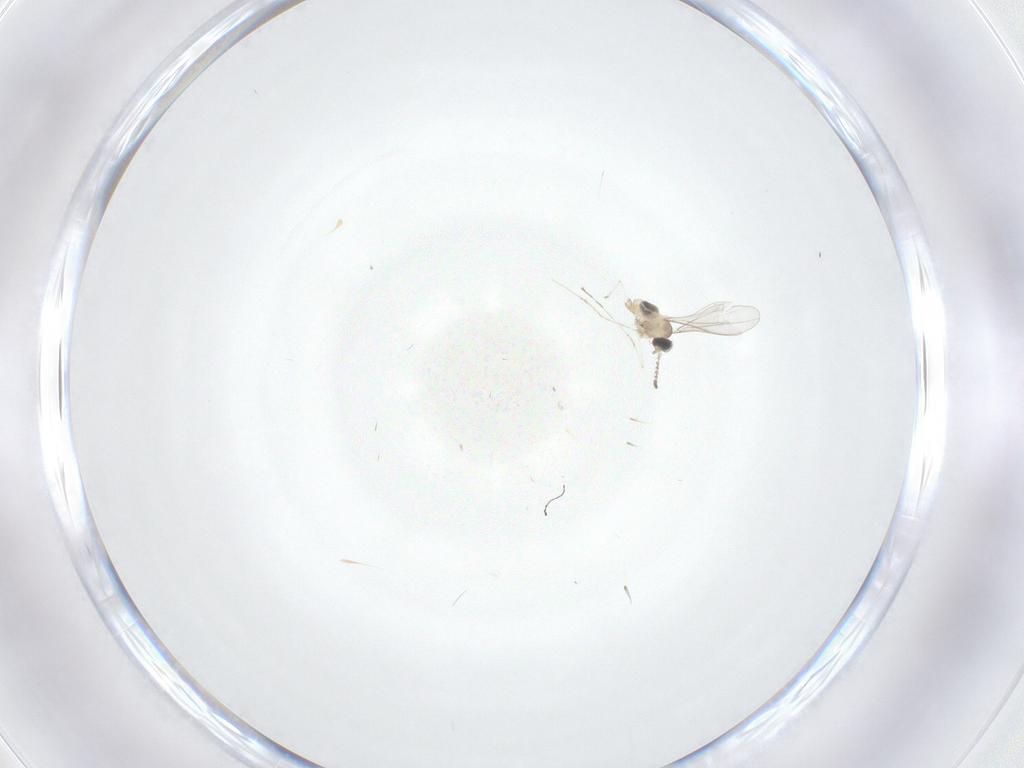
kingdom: Animalia
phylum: Arthropoda
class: Insecta
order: Diptera
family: Cecidomyiidae
